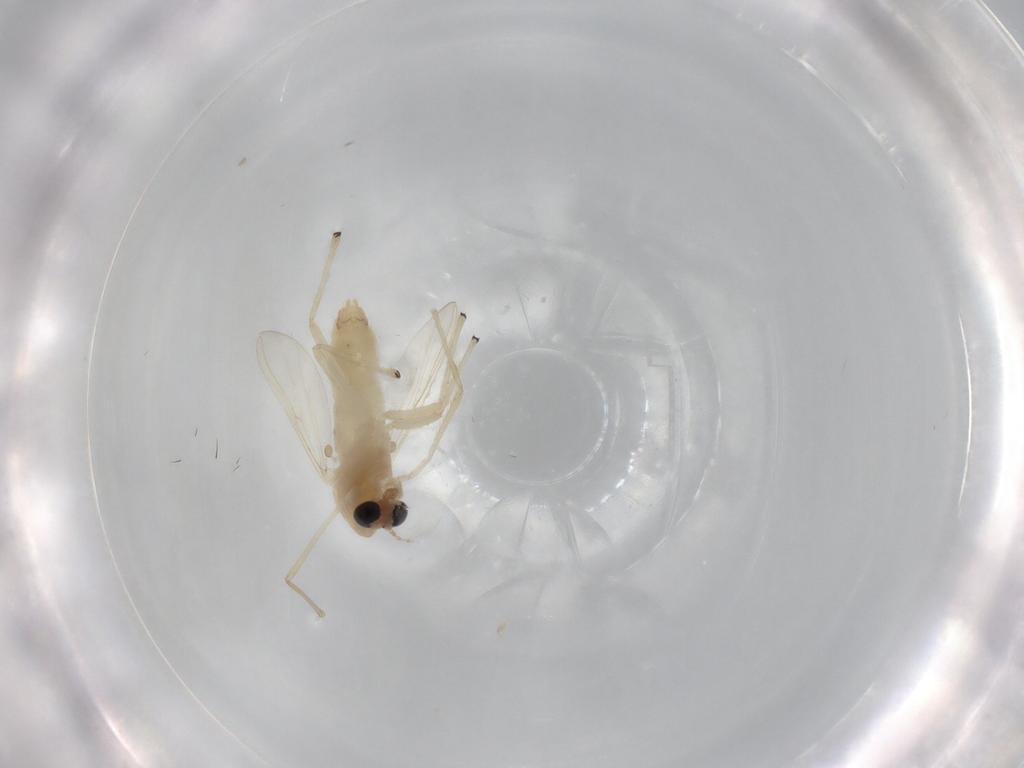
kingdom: Animalia
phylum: Arthropoda
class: Insecta
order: Diptera
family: Chironomidae
